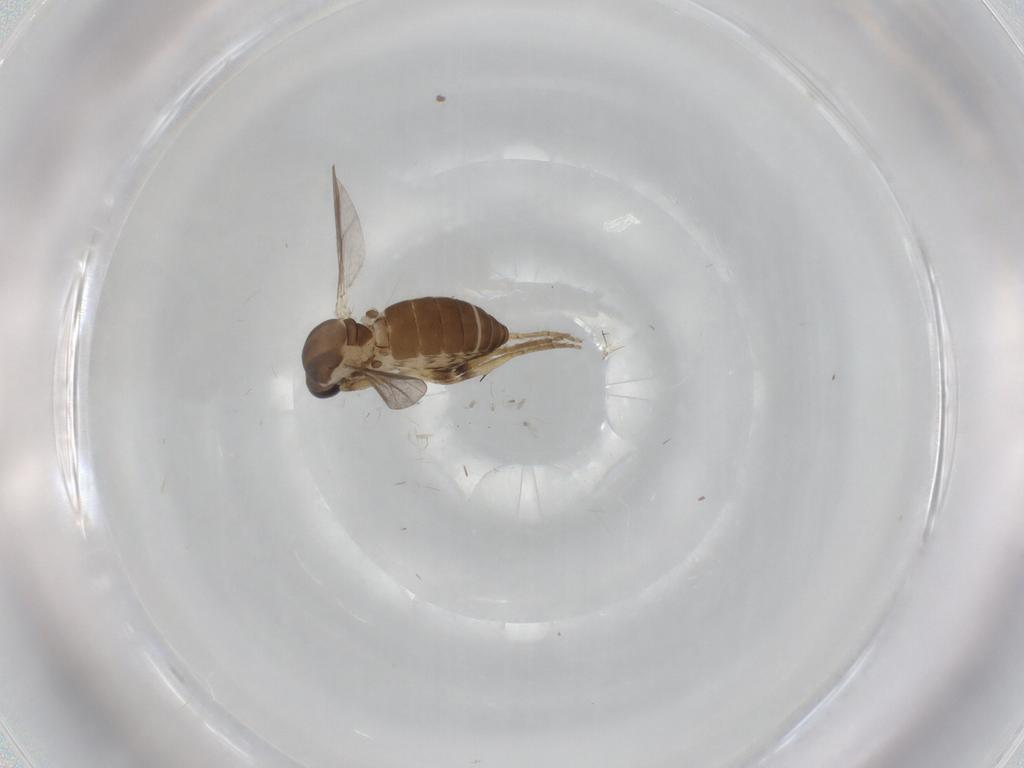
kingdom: Animalia
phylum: Arthropoda
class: Insecta
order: Diptera
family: Ceratopogonidae
